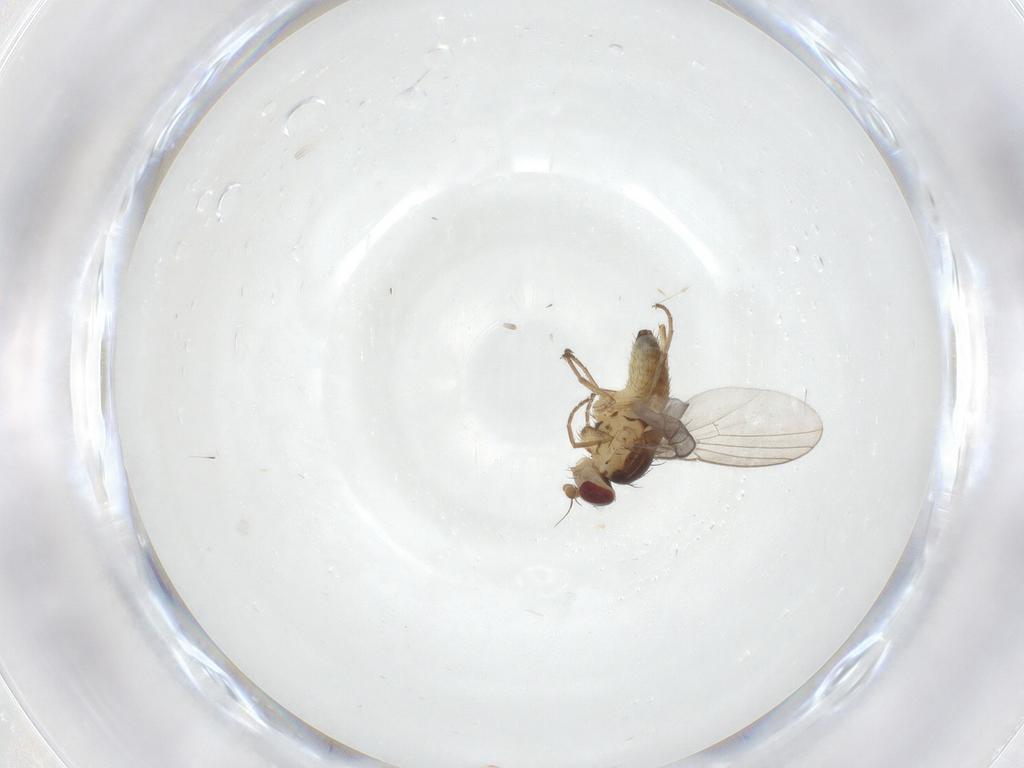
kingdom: Animalia
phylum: Arthropoda
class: Insecta
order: Diptera
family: Agromyzidae
